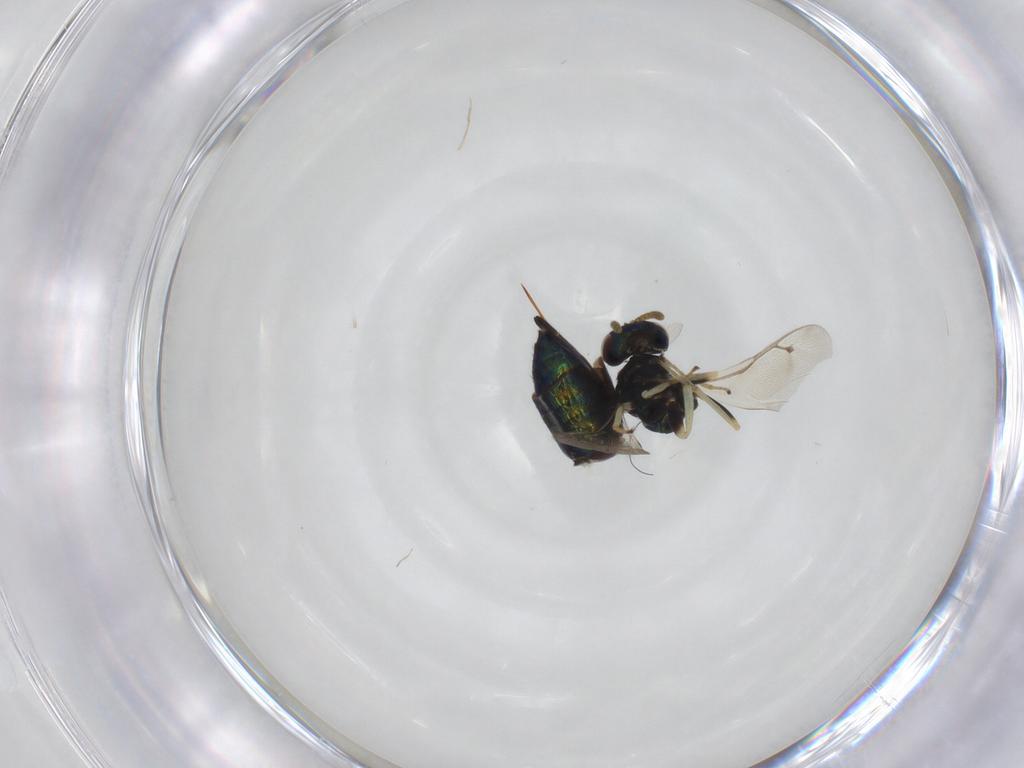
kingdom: Animalia
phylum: Arthropoda
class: Insecta
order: Hymenoptera
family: Pteromalidae
